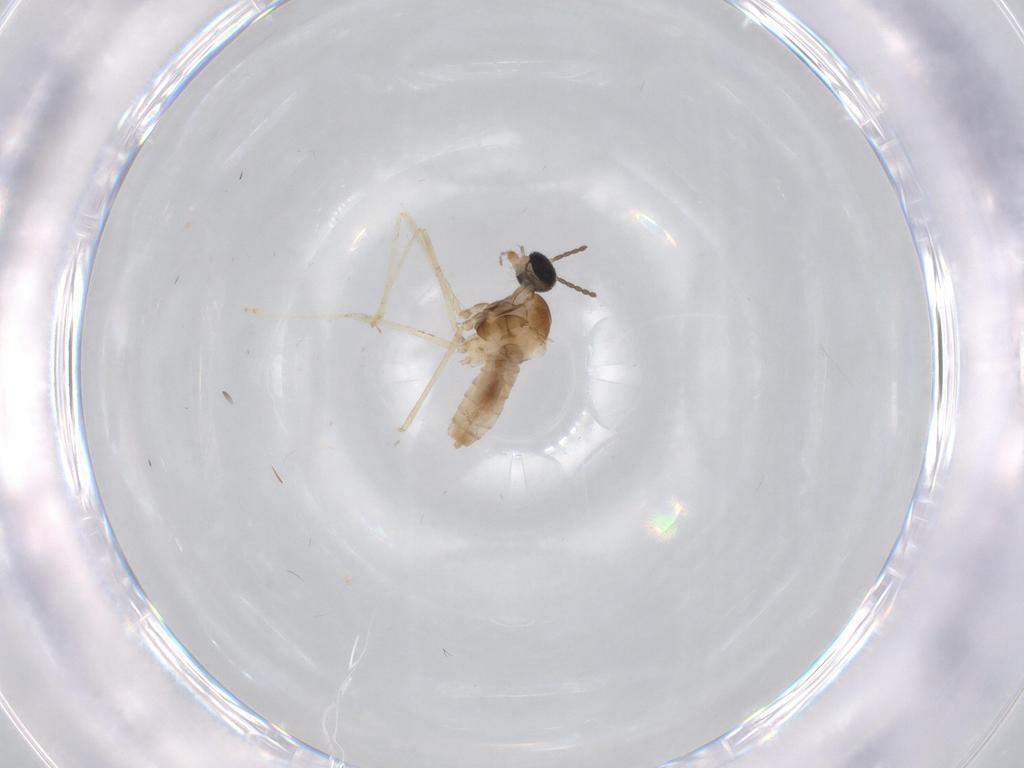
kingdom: Animalia
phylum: Arthropoda
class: Insecta
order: Diptera
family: Cecidomyiidae
